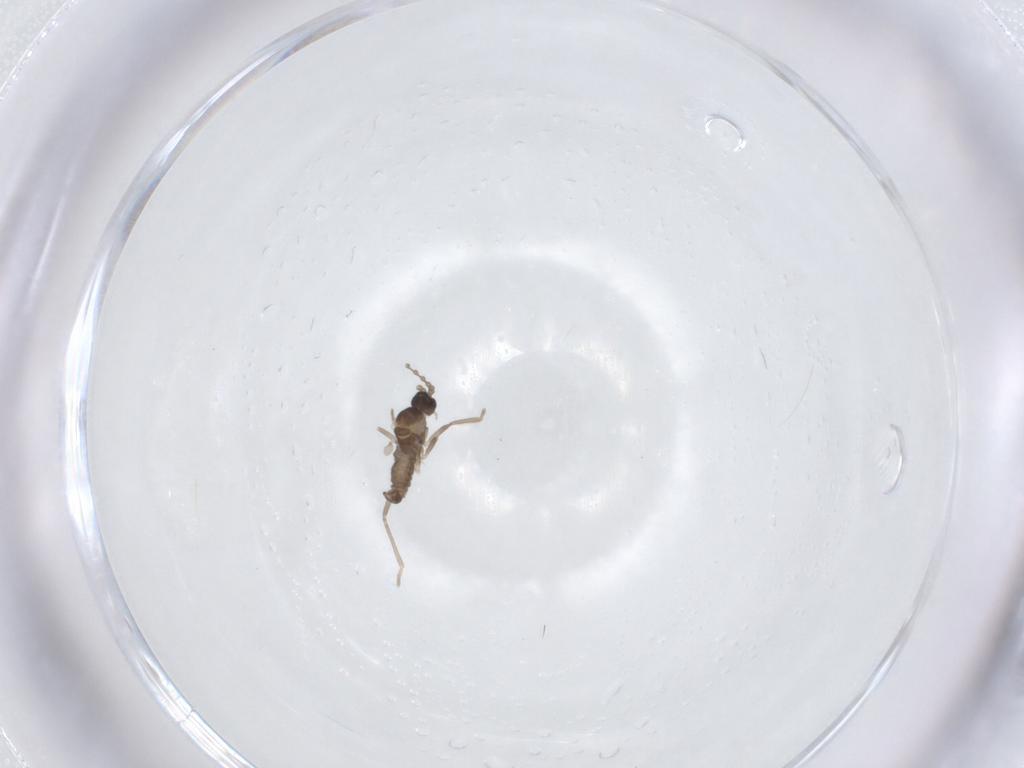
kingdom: Animalia
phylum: Arthropoda
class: Insecta
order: Diptera
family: Cecidomyiidae
